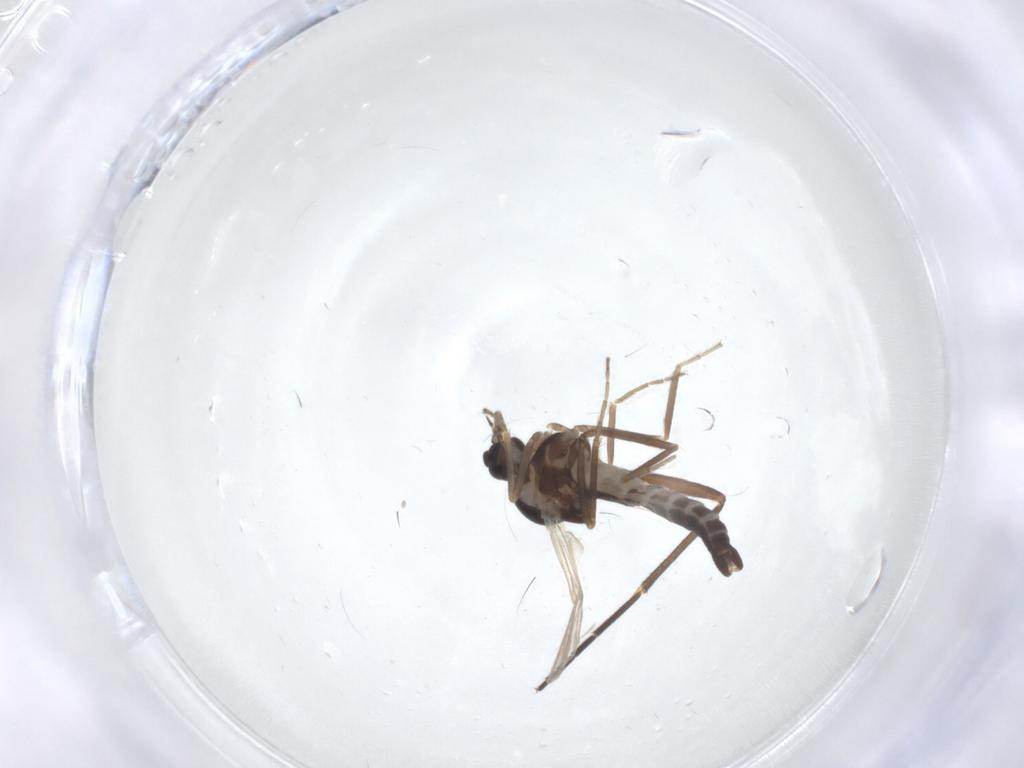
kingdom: Animalia
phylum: Arthropoda
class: Insecta
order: Diptera
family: Ceratopogonidae
